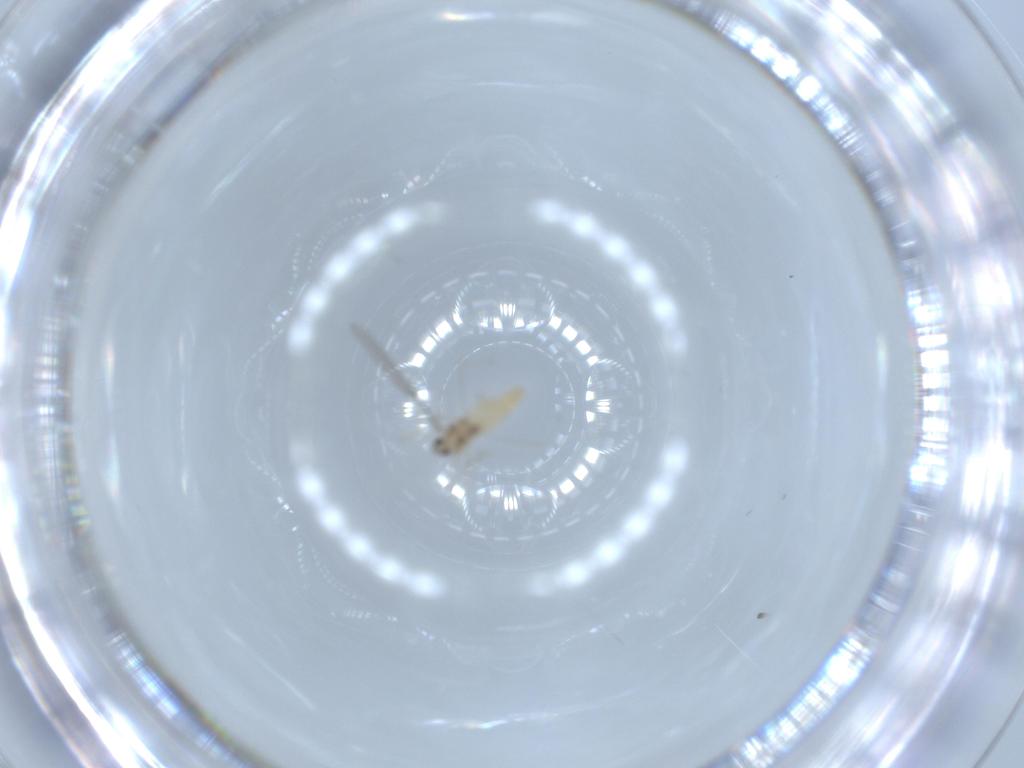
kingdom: Animalia
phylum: Arthropoda
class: Insecta
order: Diptera
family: Cecidomyiidae
